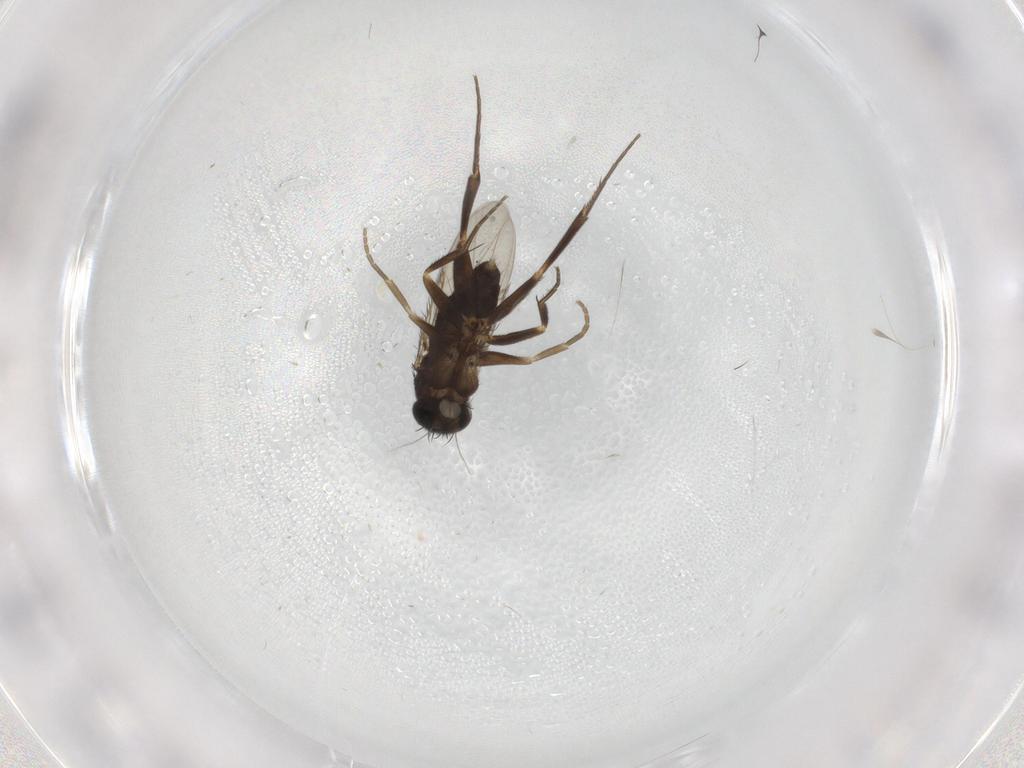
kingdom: Animalia
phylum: Arthropoda
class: Insecta
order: Diptera
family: Phoridae
